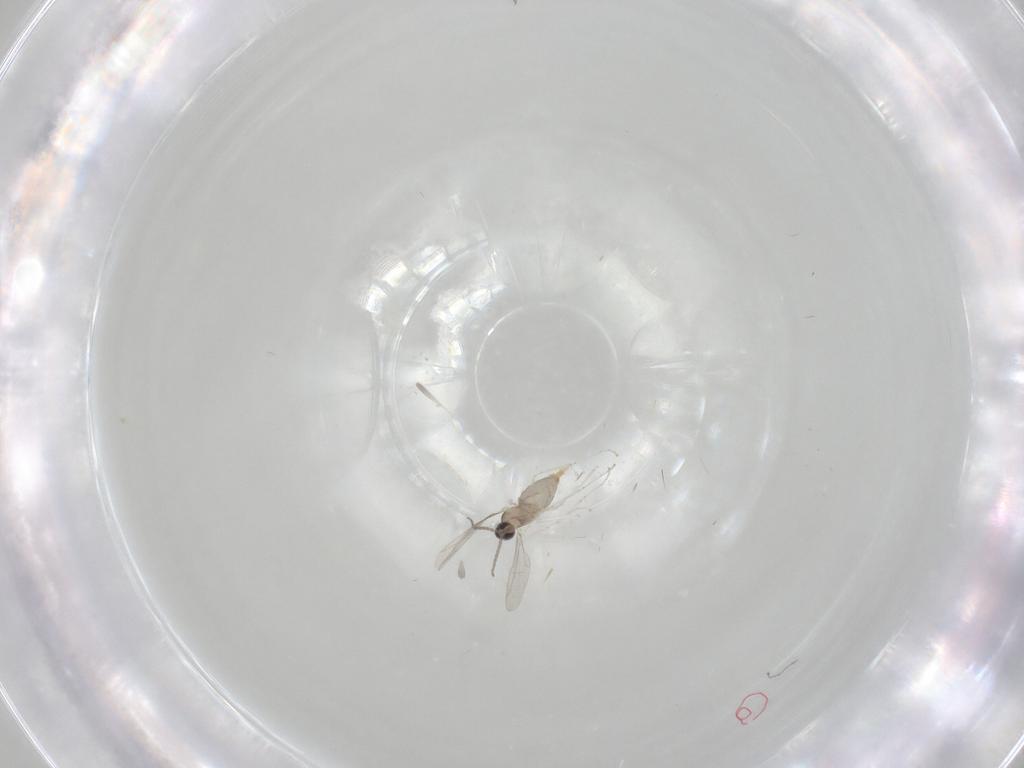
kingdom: Animalia
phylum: Arthropoda
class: Insecta
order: Diptera
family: Cecidomyiidae
